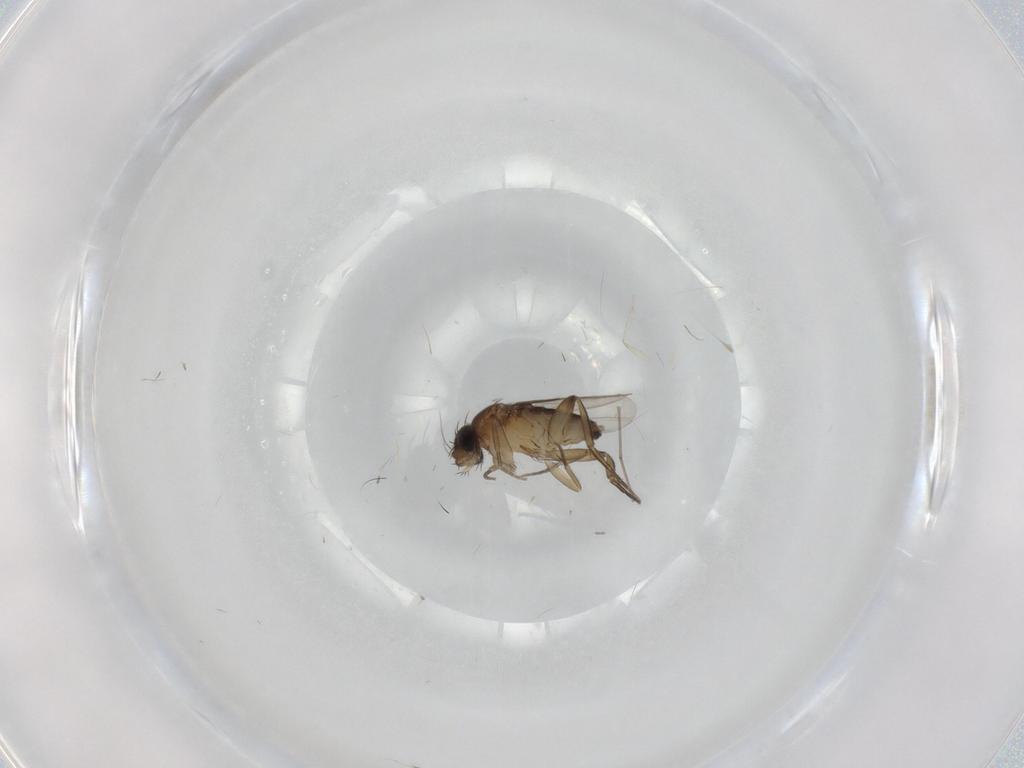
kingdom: Animalia
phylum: Arthropoda
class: Insecta
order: Diptera
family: Phoridae
